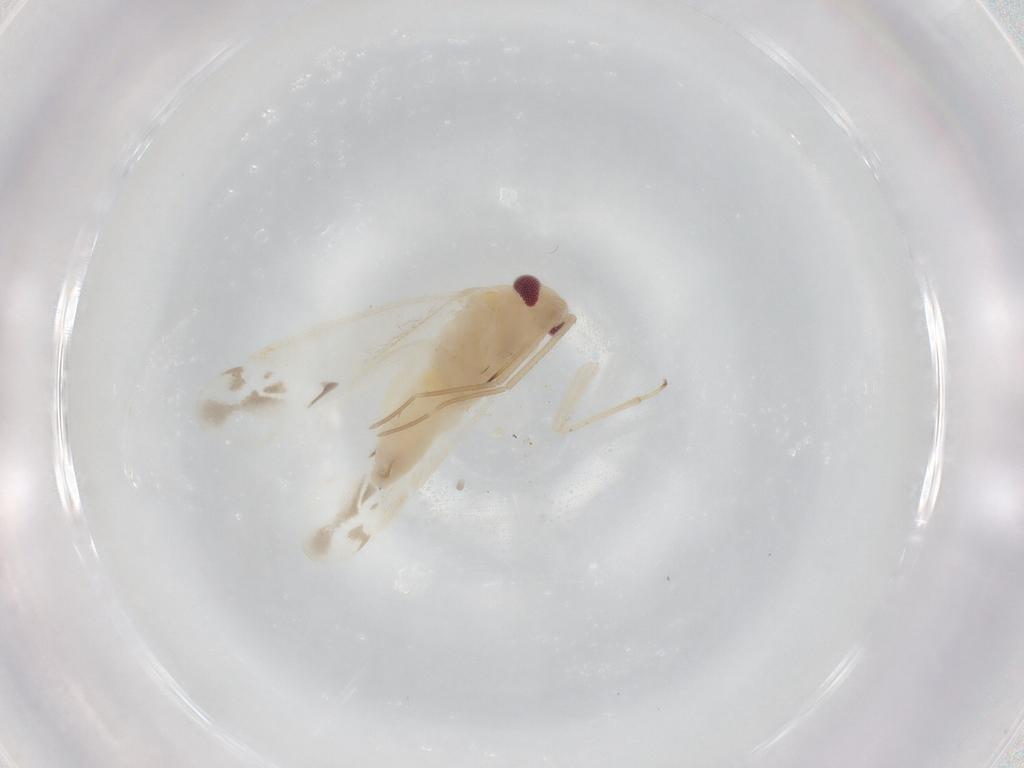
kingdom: Animalia
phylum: Arthropoda
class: Insecta
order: Hemiptera
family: Miridae
